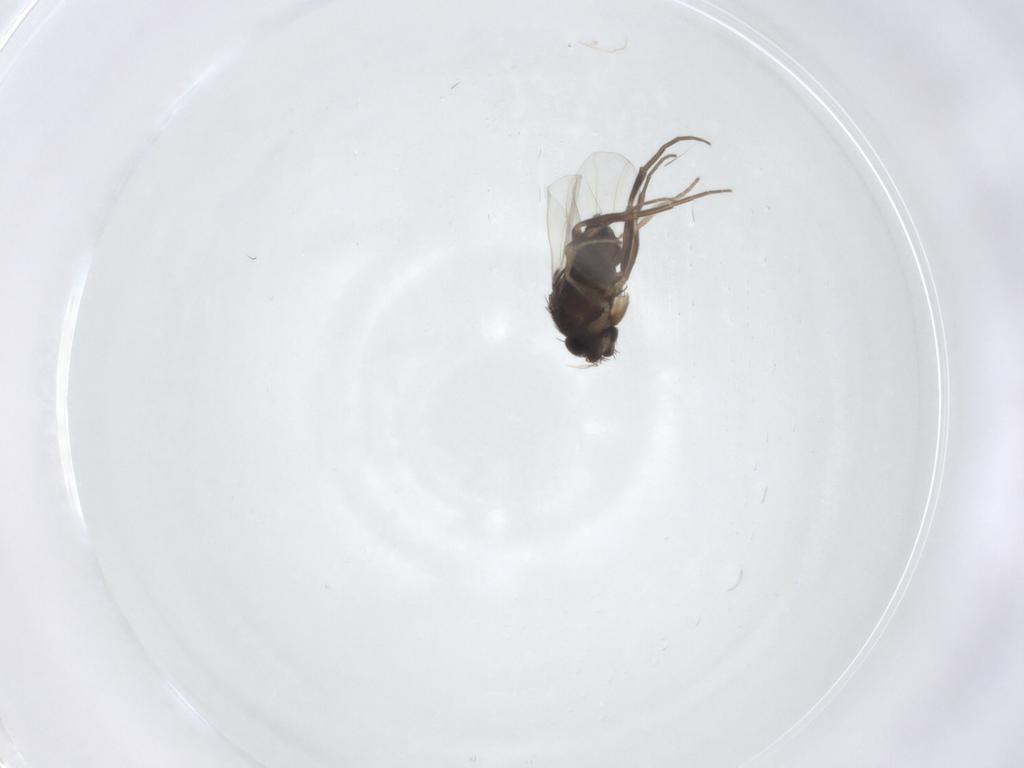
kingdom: Animalia
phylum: Arthropoda
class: Insecta
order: Diptera
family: Phoridae
